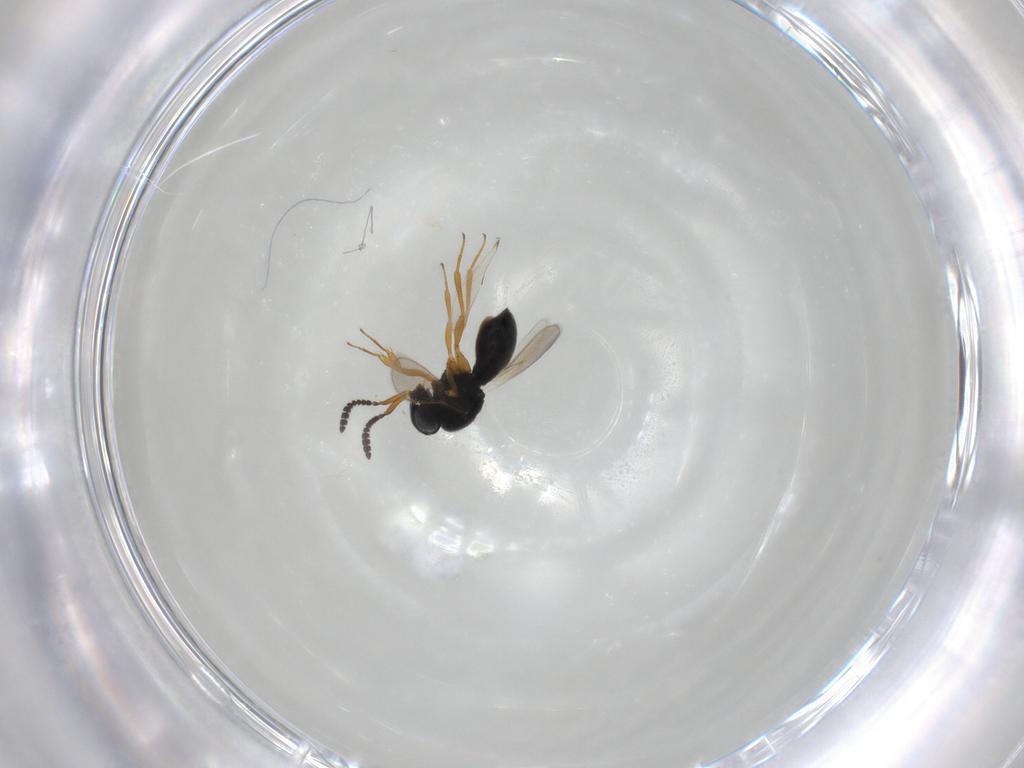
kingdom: Animalia
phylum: Arthropoda
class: Insecta
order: Hymenoptera
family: Scelionidae
